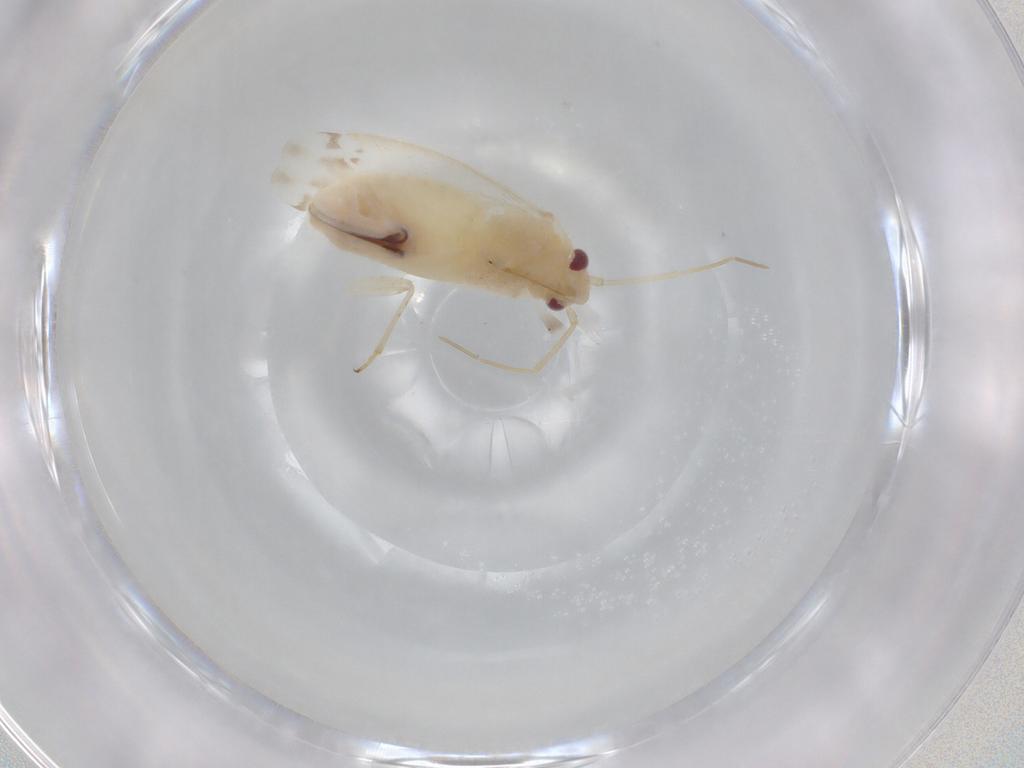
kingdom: Animalia
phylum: Arthropoda
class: Insecta
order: Hemiptera
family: Miridae
